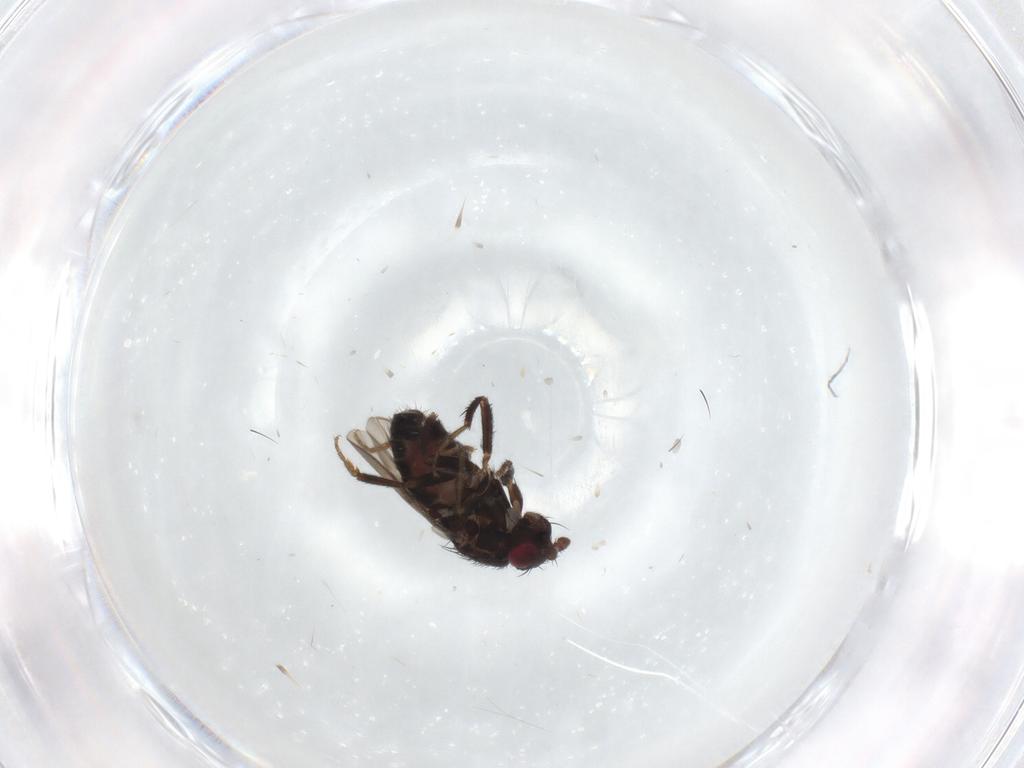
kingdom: Animalia
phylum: Arthropoda
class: Insecta
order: Diptera
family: Sphaeroceridae
